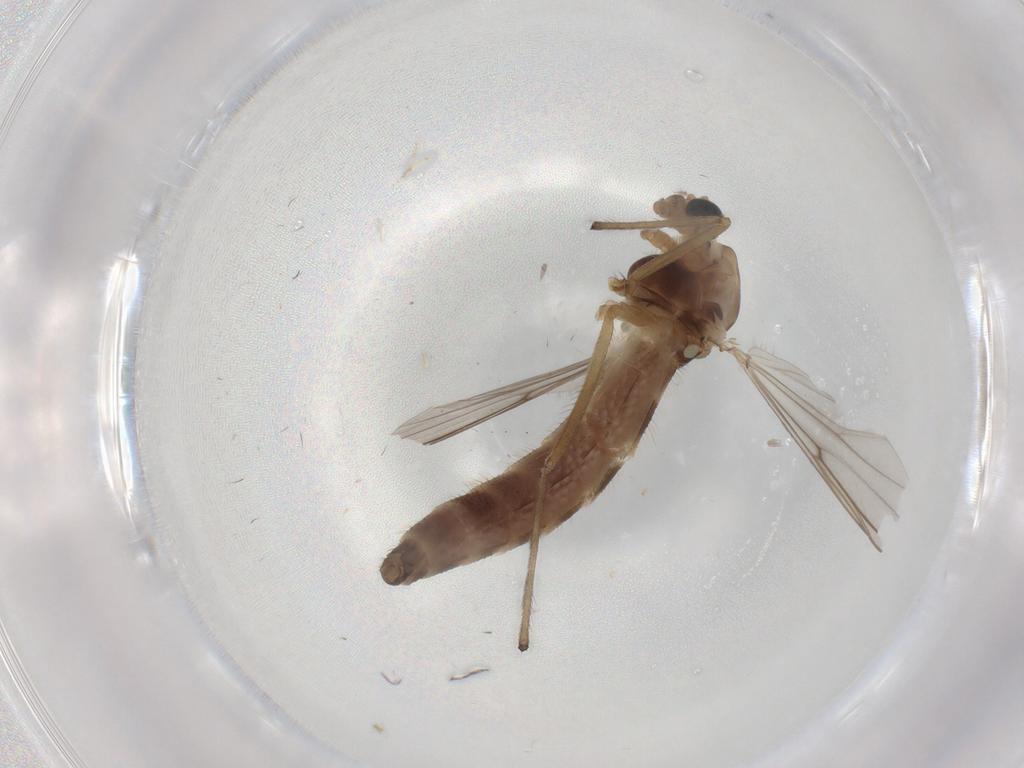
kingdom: Animalia
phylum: Arthropoda
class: Insecta
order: Diptera
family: Chironomidae
